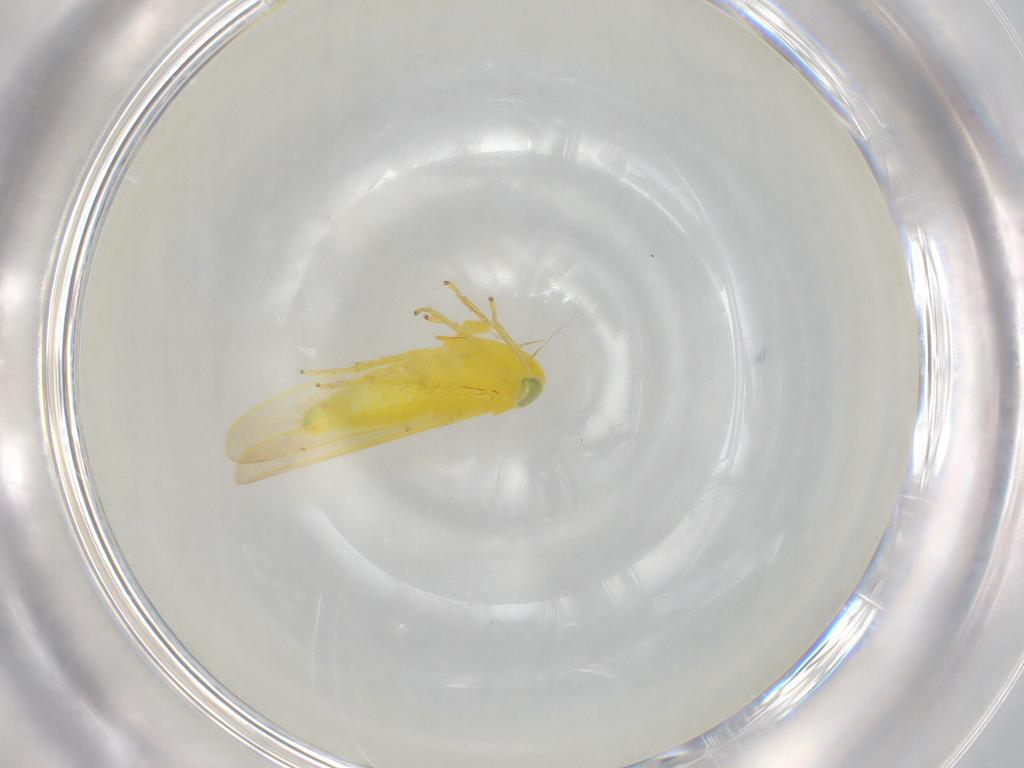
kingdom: Animalia
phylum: Arthropoda
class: Insecta
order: Hemiptera
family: Cicadellidae
